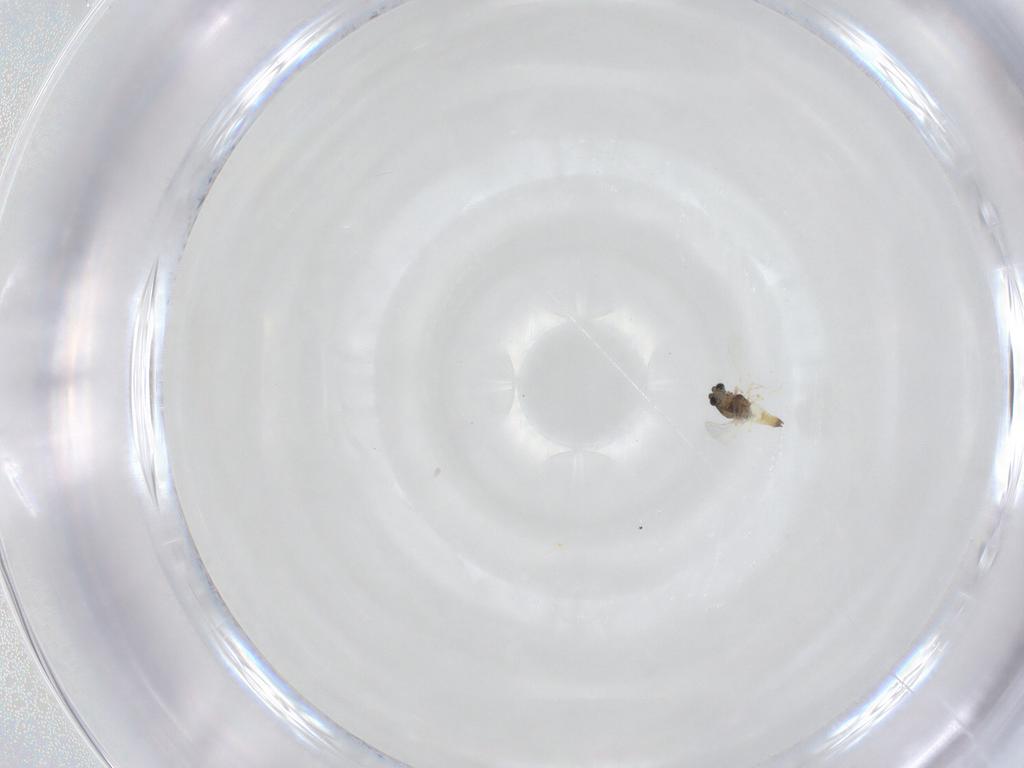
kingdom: Animalia
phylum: Arthropoda
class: Insecta
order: Diptera
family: Chironomidae
